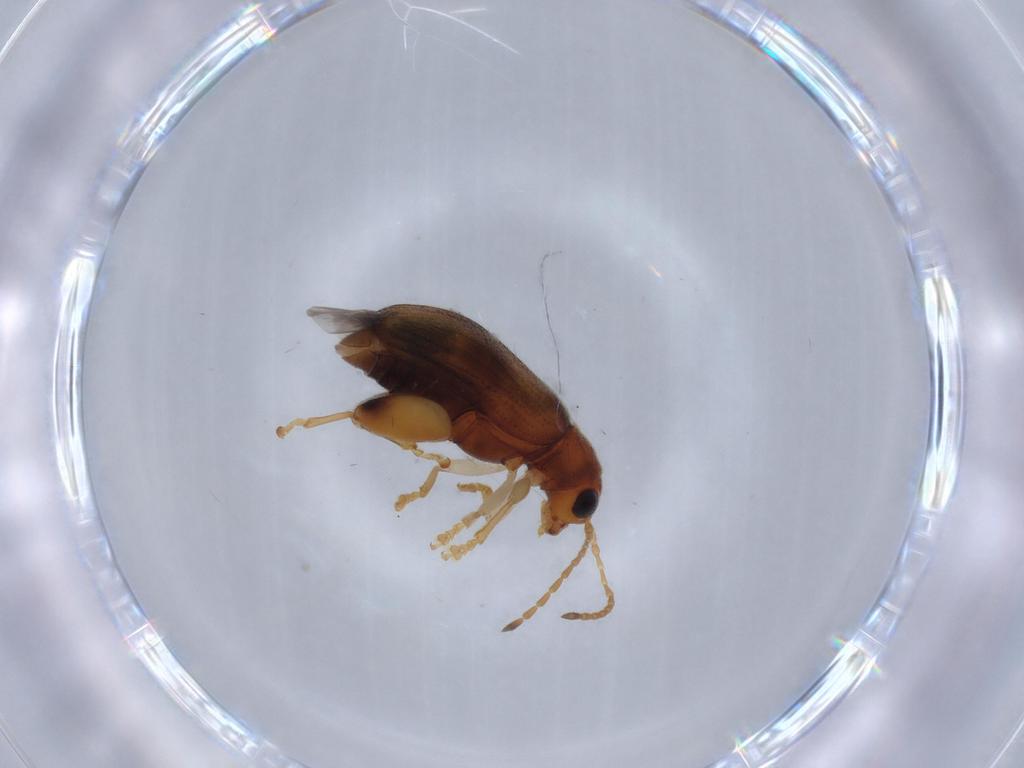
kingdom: Animalia
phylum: Arthropoda
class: Insecta
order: Coleoptera
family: Chrysomelidae
